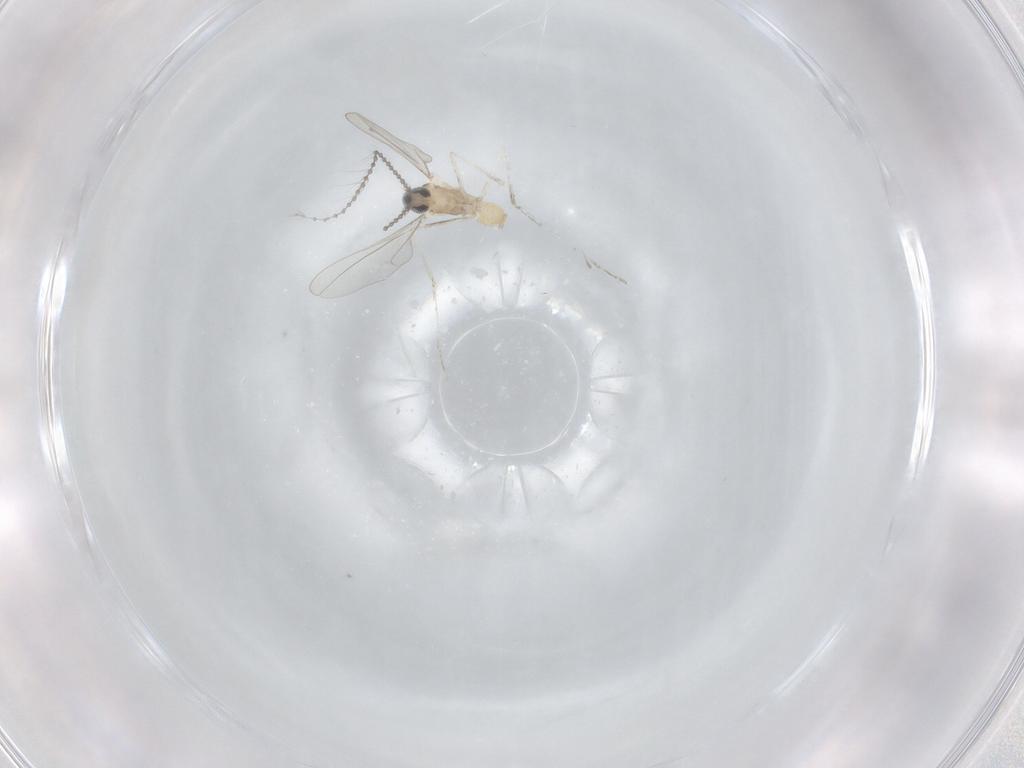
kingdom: Animalia
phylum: Arthropoda
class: Insecta
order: Diptera
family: Cecidomyiidae
